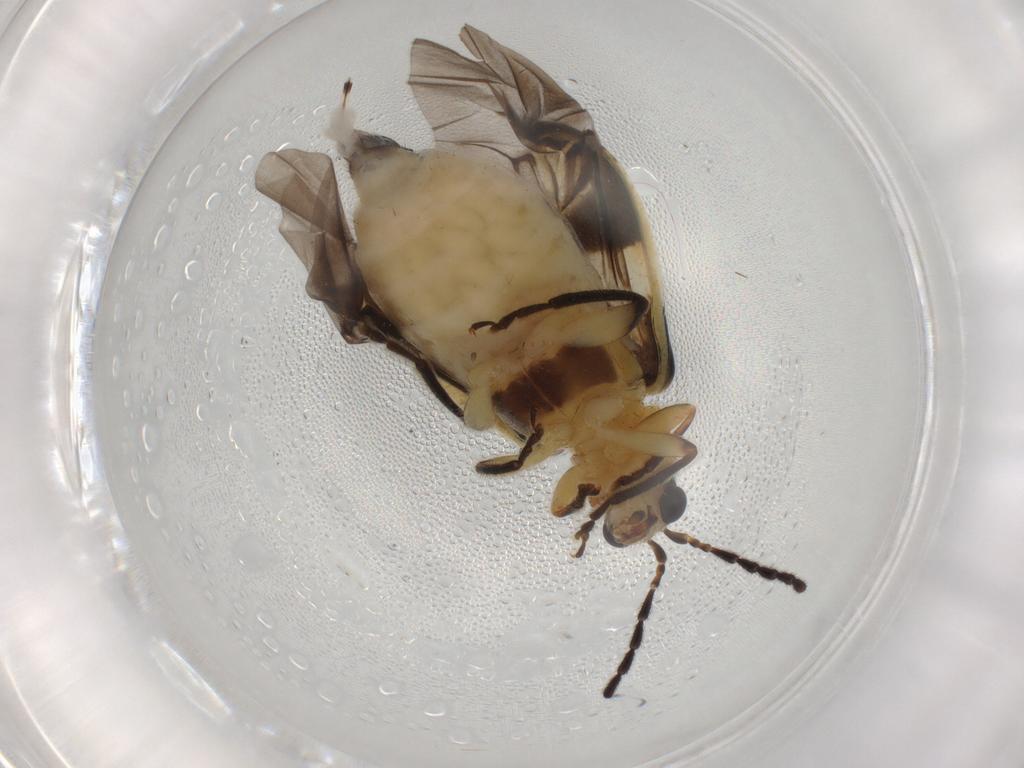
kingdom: Animalia
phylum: Arthropoda
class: Insecta
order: Coleoptera
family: Chrysomelidae
